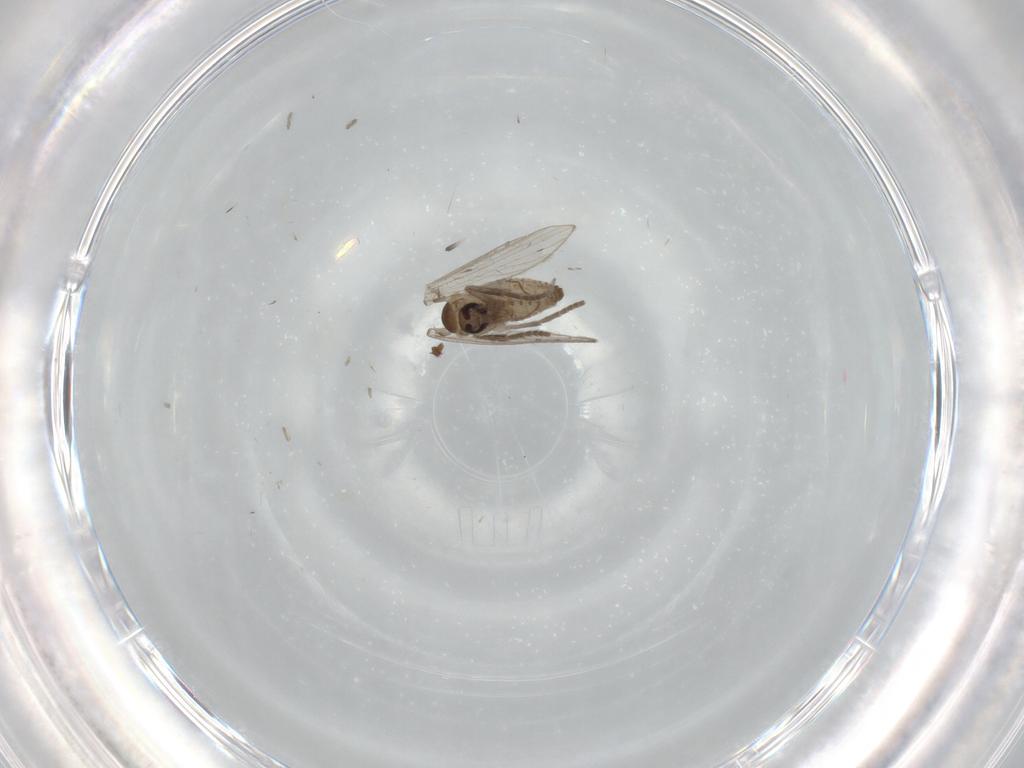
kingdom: Animalia
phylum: Arthropoda
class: Insecta
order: Diptera
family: Psychodidae
